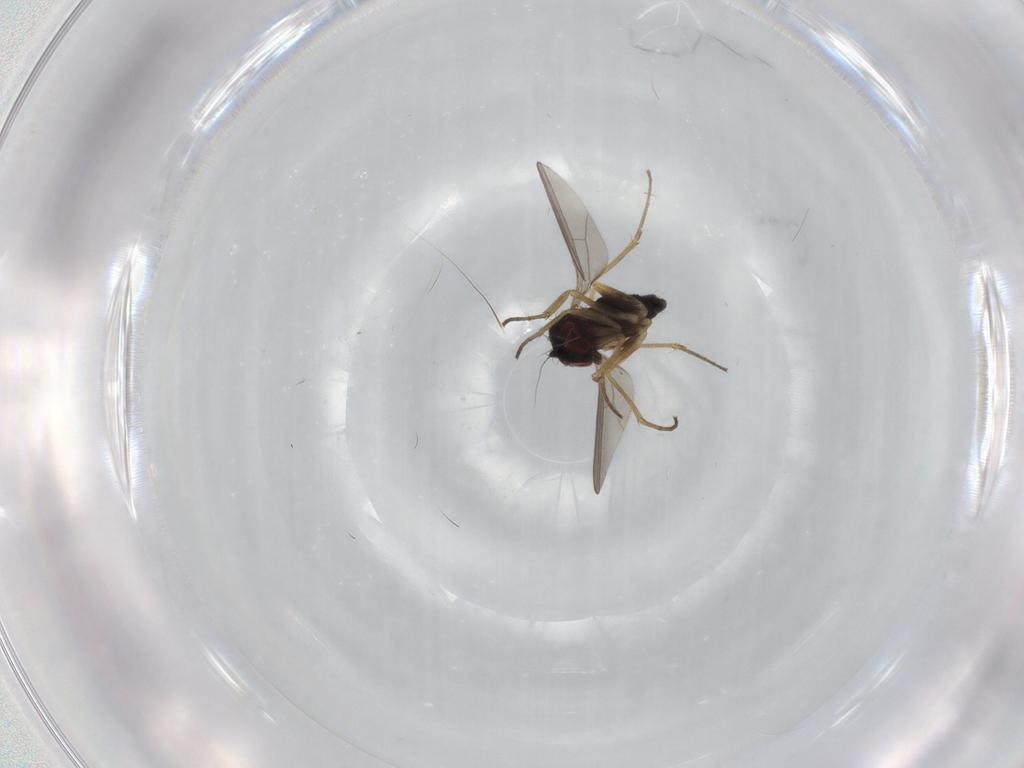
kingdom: Animalia
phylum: Arthropoda
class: Insecta
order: Diptera
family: Dolichopodidae
